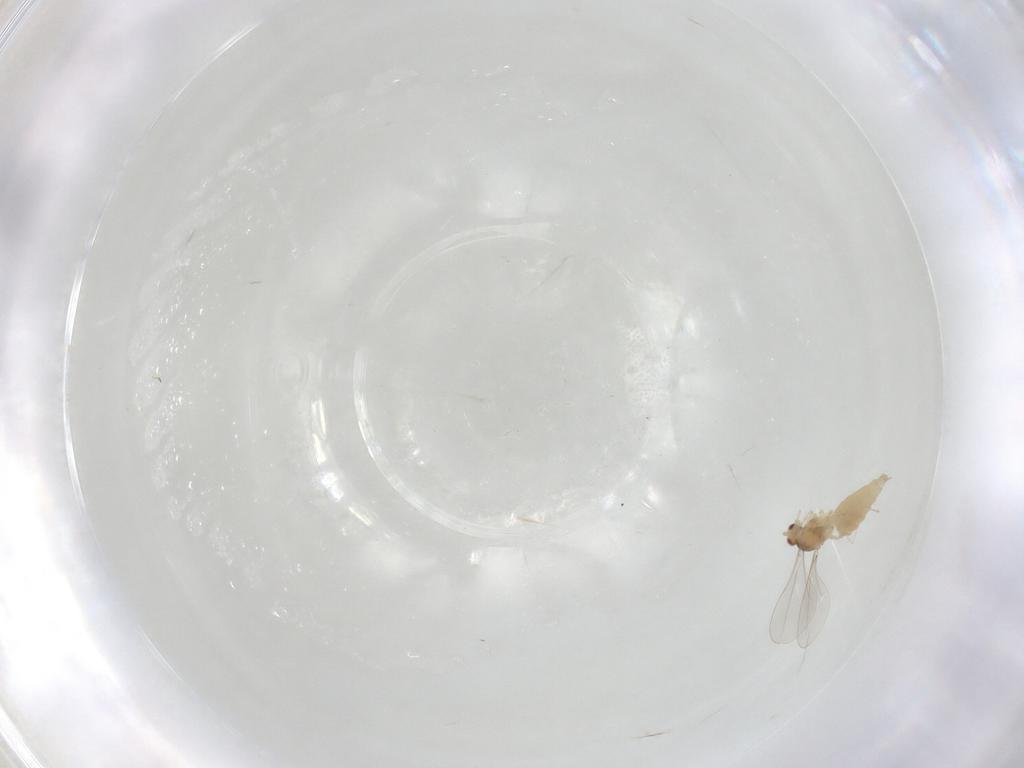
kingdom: Animalia
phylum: Arthropoda
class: Insecta
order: Diptera
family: Cecidomyiidae
